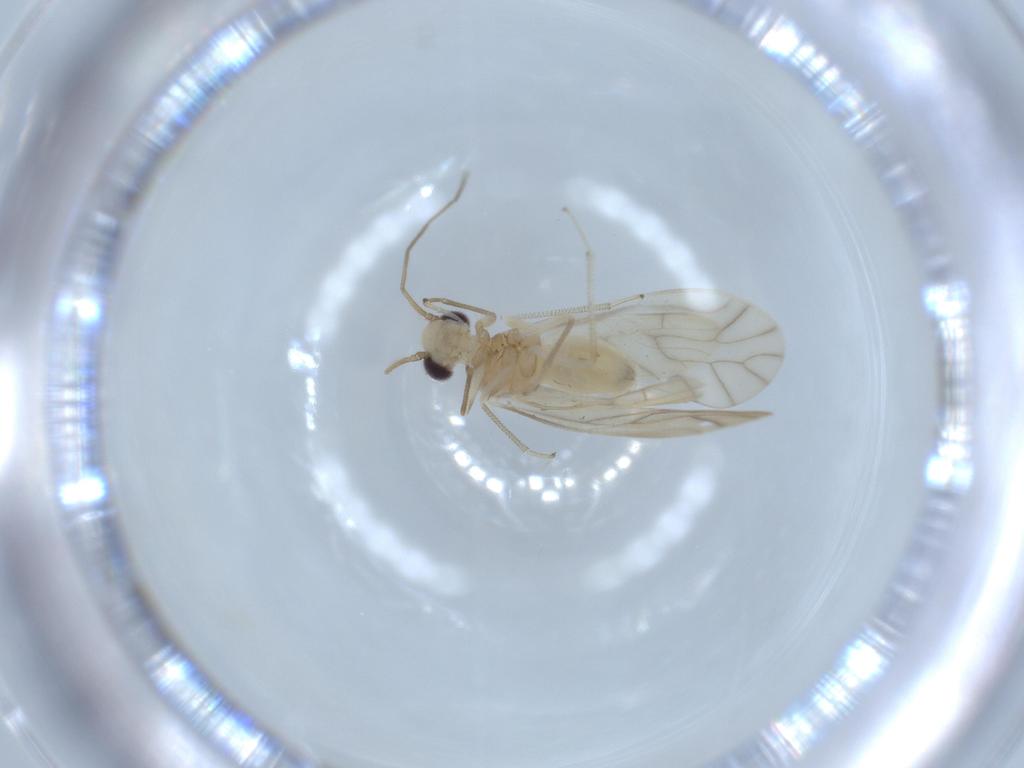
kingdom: Animalia
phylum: Arthropoda
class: Insecta
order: Psocodea
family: Caeciliusidae
